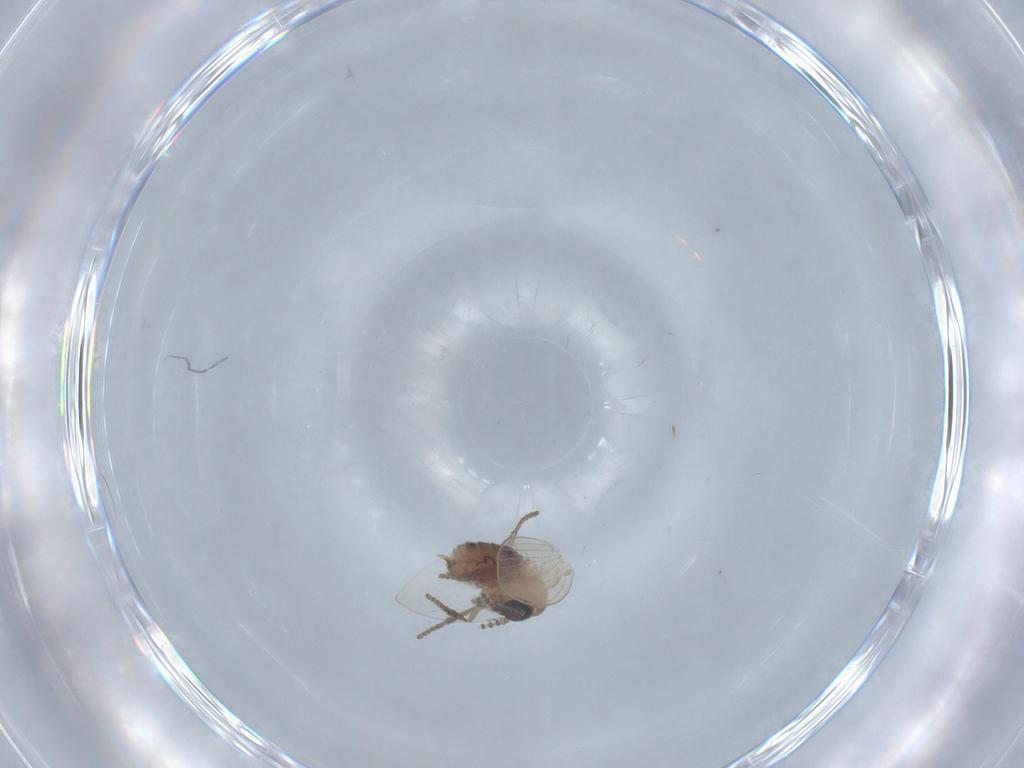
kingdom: Animalia
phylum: Arthropoda
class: Insecta
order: Diptera
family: Psychodidae
